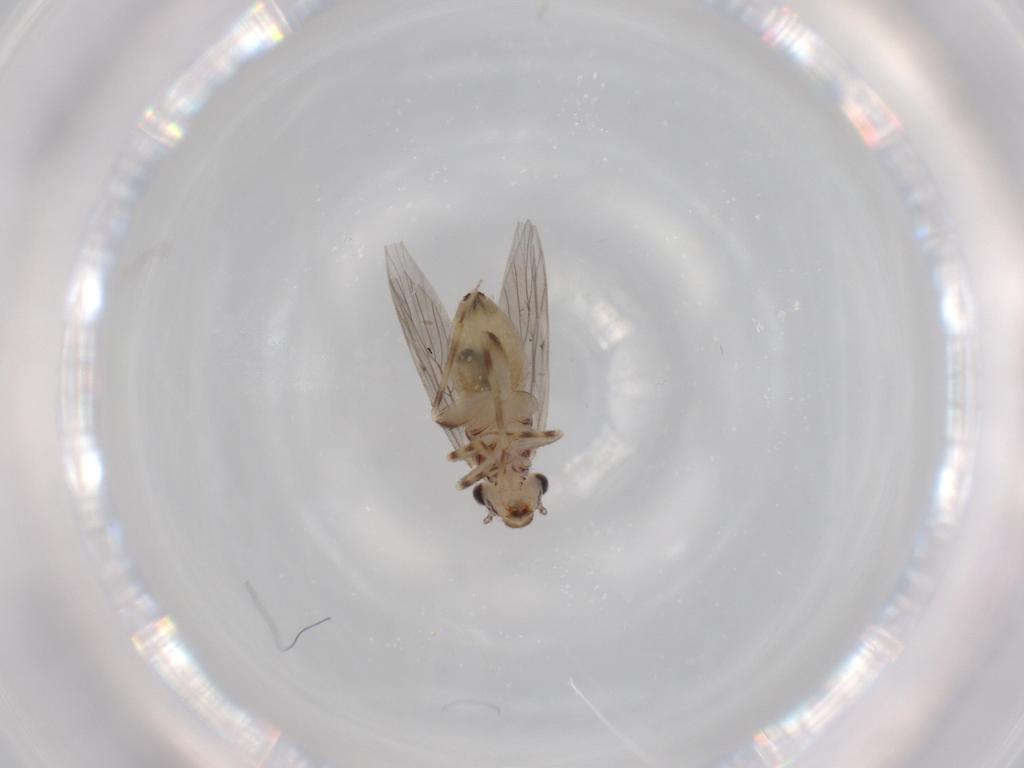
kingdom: Animalia
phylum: Arthropoda
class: Insecta
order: Psocodea
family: Lepidopsocidae
